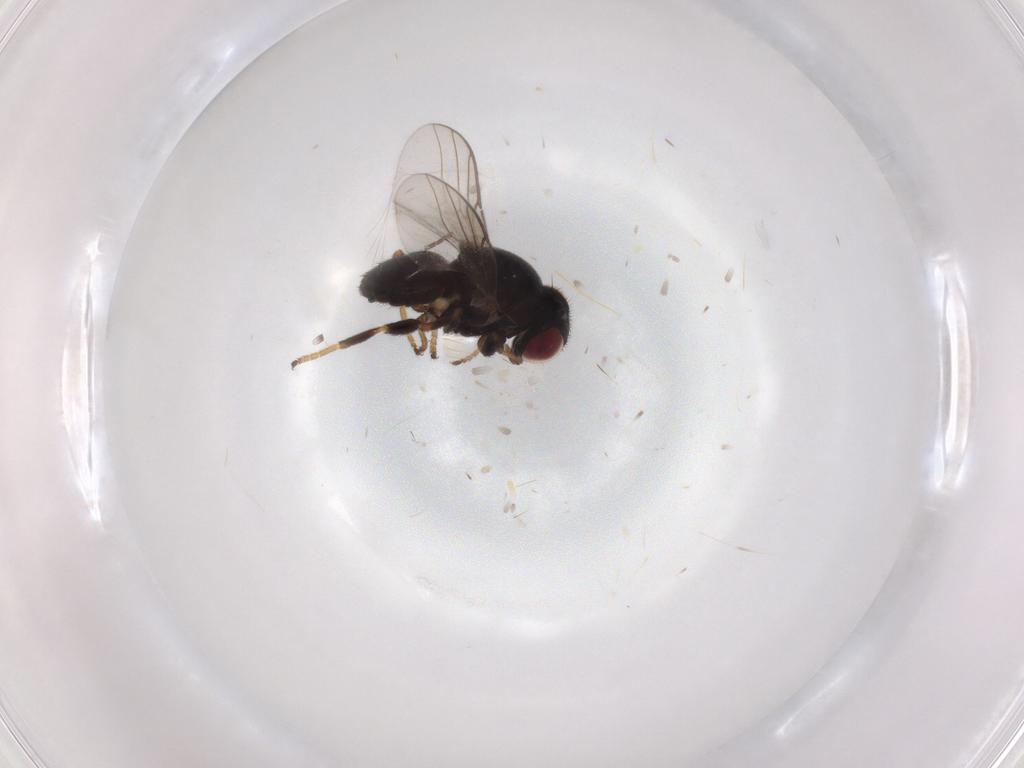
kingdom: Animalia
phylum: Arthropoda
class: Insecta
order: Diptera
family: Chloropidae
